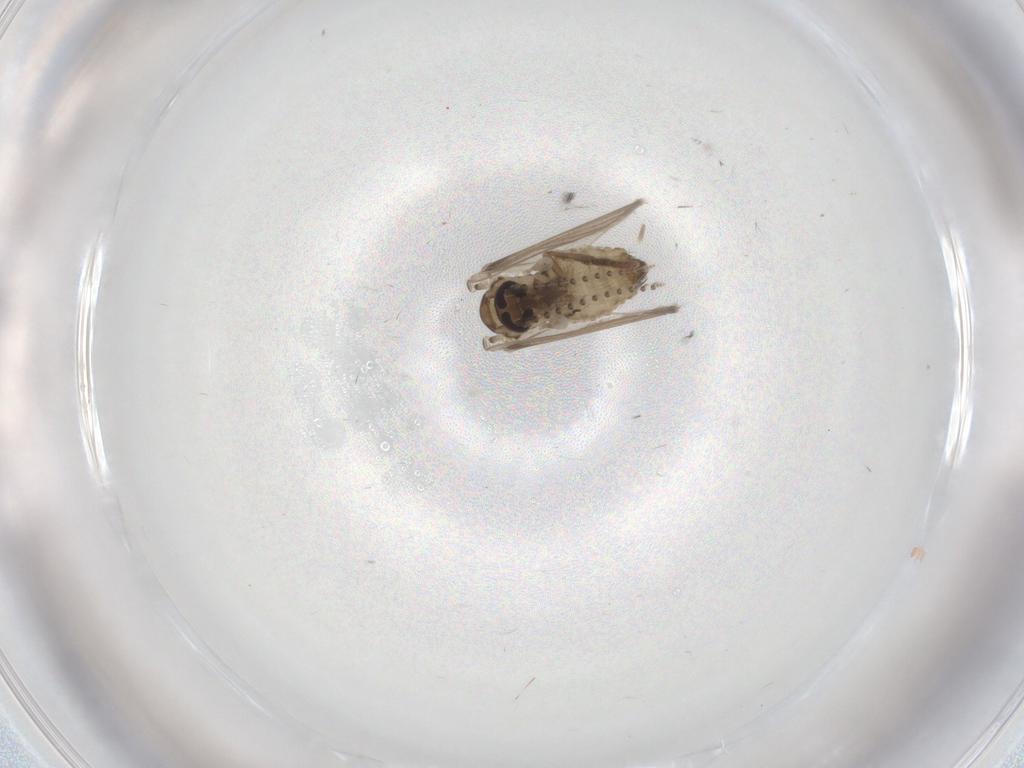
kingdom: Animalia
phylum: Arthropoda
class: Insecta
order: Diptera
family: Psychodidae
